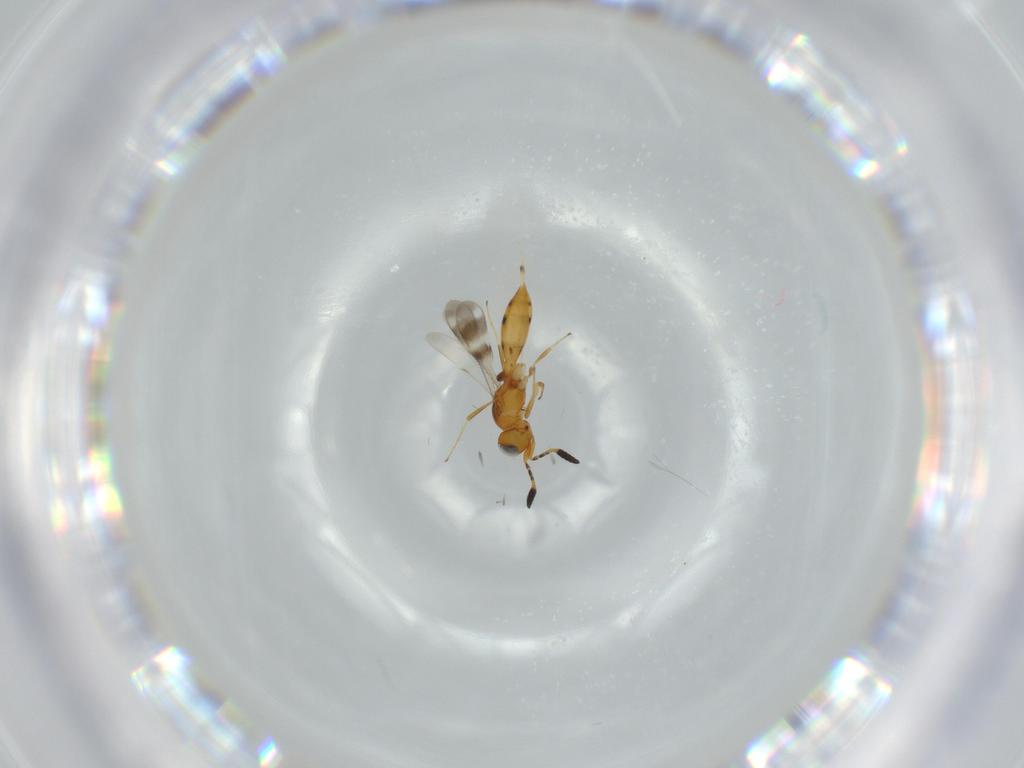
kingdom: Animalia
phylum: Arthropoda
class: Insecta
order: Hymenoptera
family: Scelionidae
